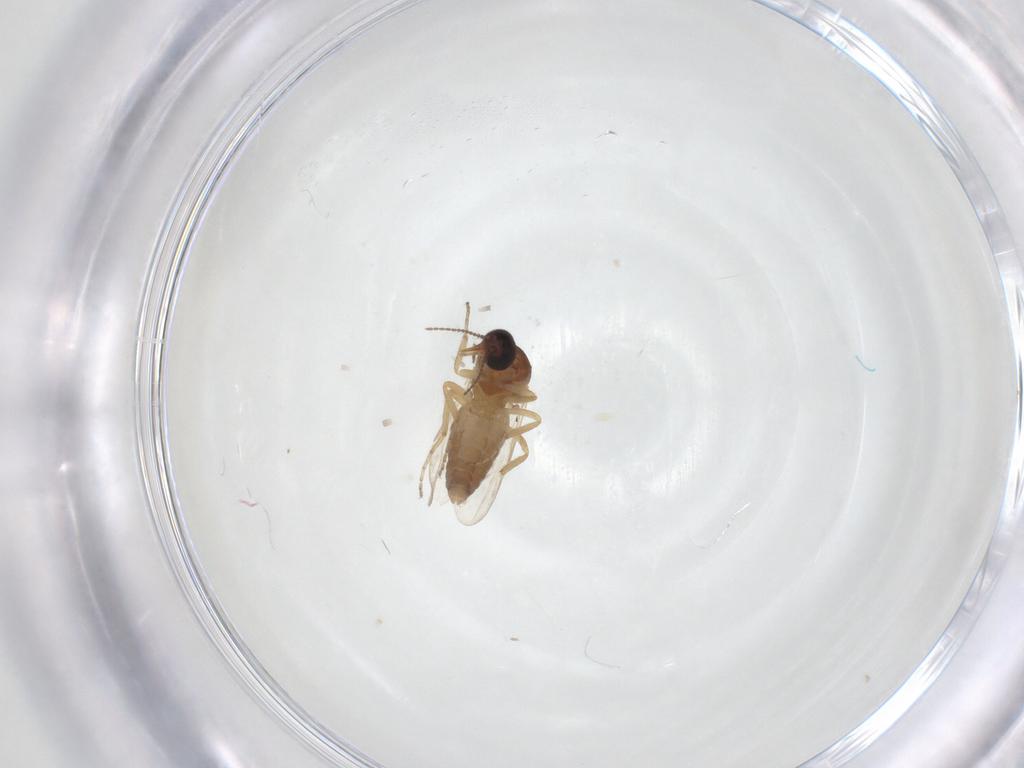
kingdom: Animalia
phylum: Arthropoda
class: Insecta
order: Diptera
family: Ceratopogonidae
